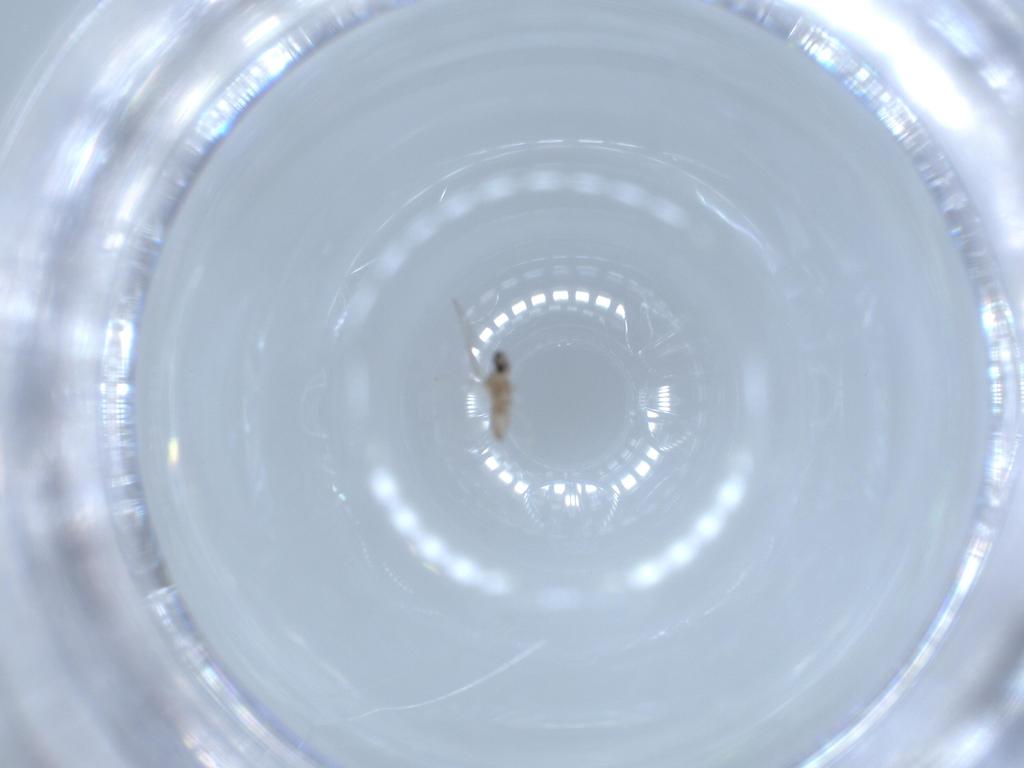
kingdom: Animalia
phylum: Arthropoda
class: Insecta
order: Diptera
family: Cecidomyiidae
